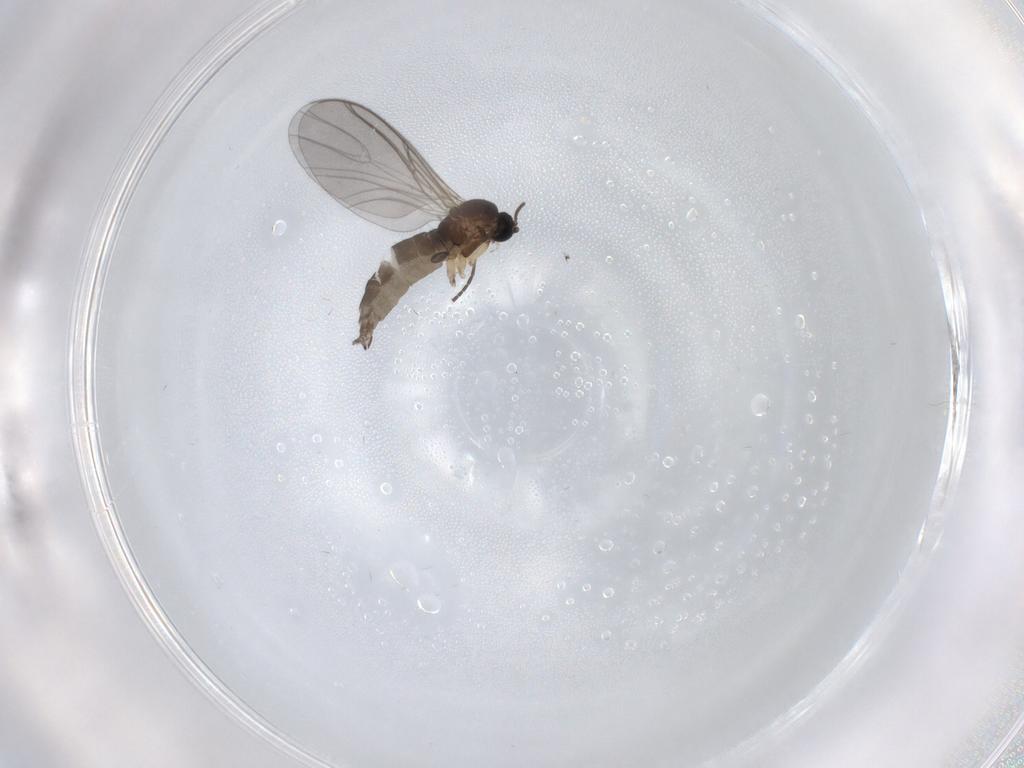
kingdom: Animalia
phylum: Arthropoda
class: Insecta
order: Diptera
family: Sciaridae
